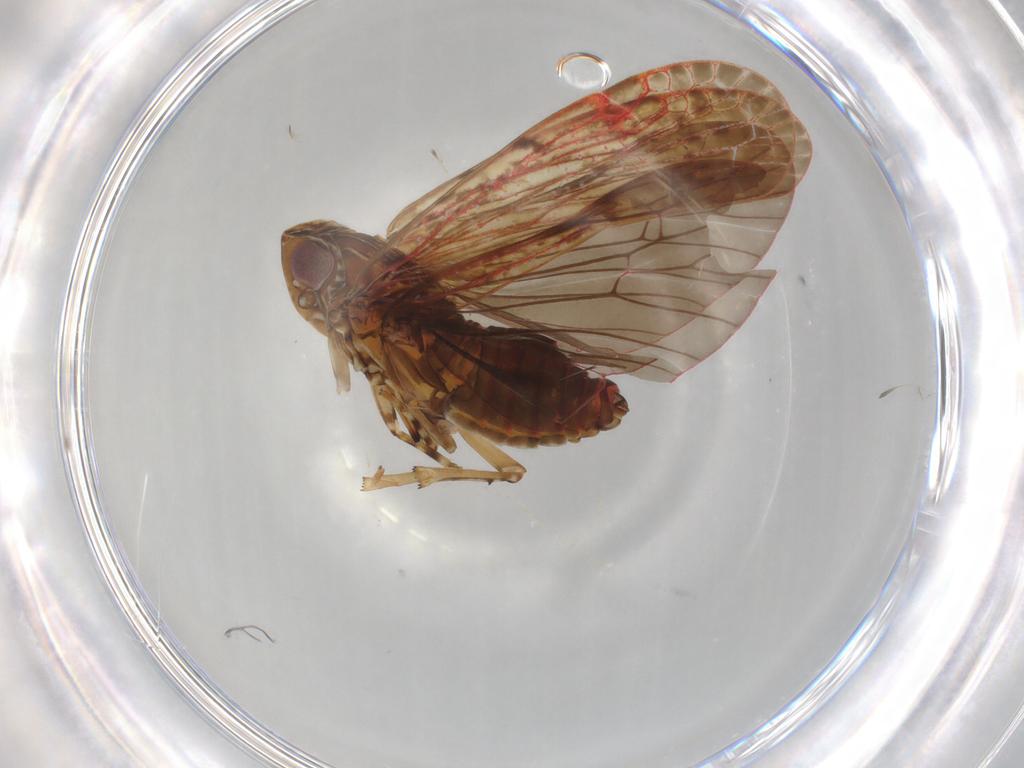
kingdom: Animalia
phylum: Arthropoda
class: Insecta
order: Hemiptera
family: Achilidae
